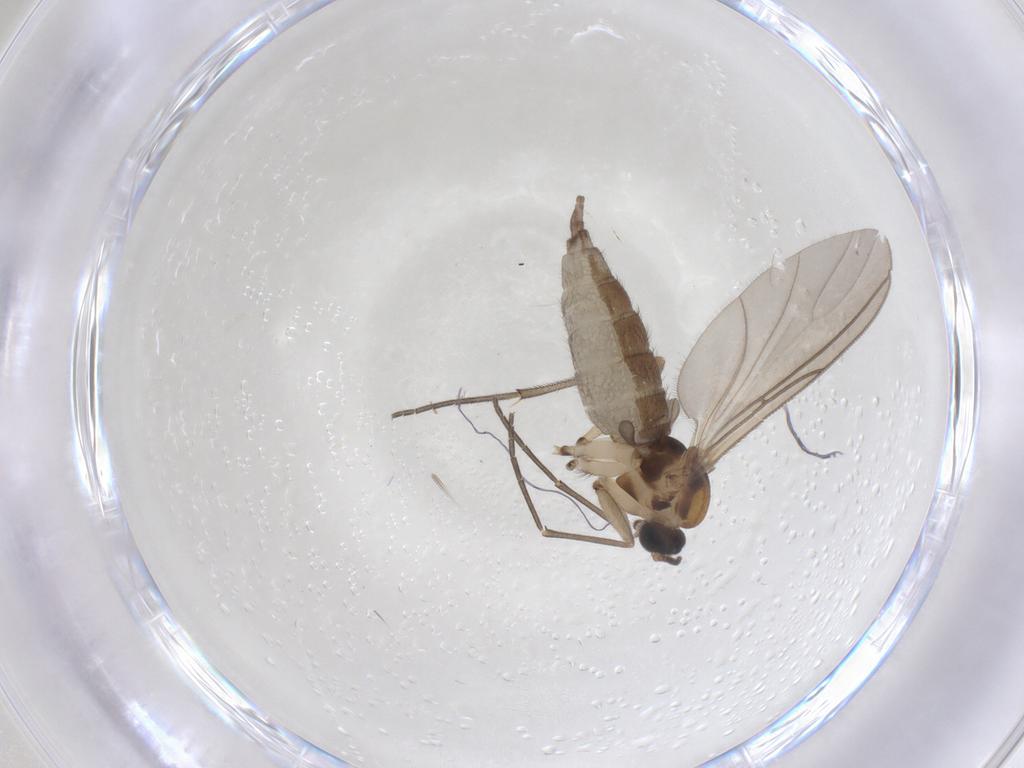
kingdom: Animalia
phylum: Arthropoda
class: Insecta
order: Diptera
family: Sciaridae
